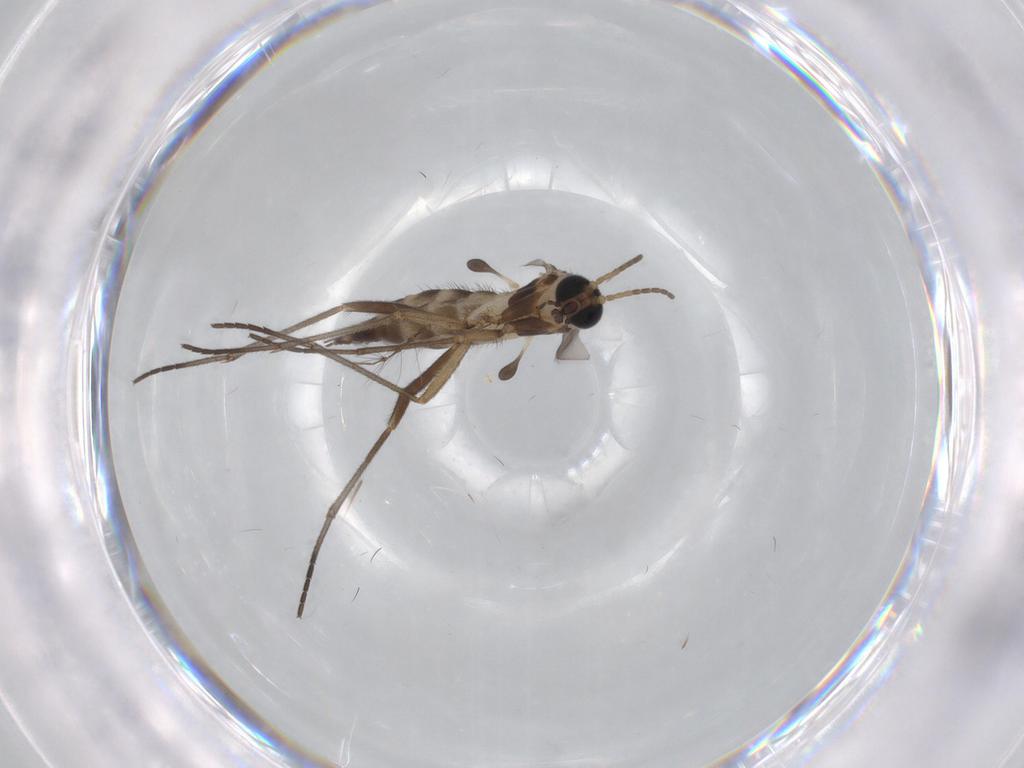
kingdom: Animalia
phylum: Arthropoda
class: Insecta
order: Diptera
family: Sciaridae
